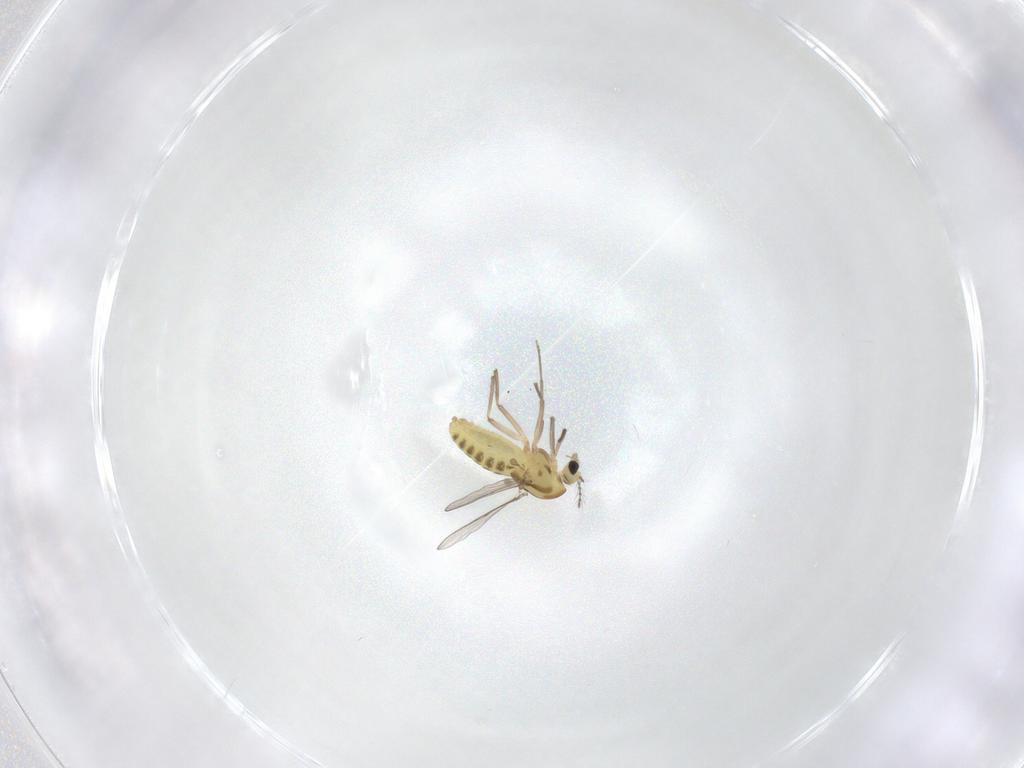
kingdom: Animalia
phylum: Arthropoda
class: Insecta
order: Diptera
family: Chironomidae
